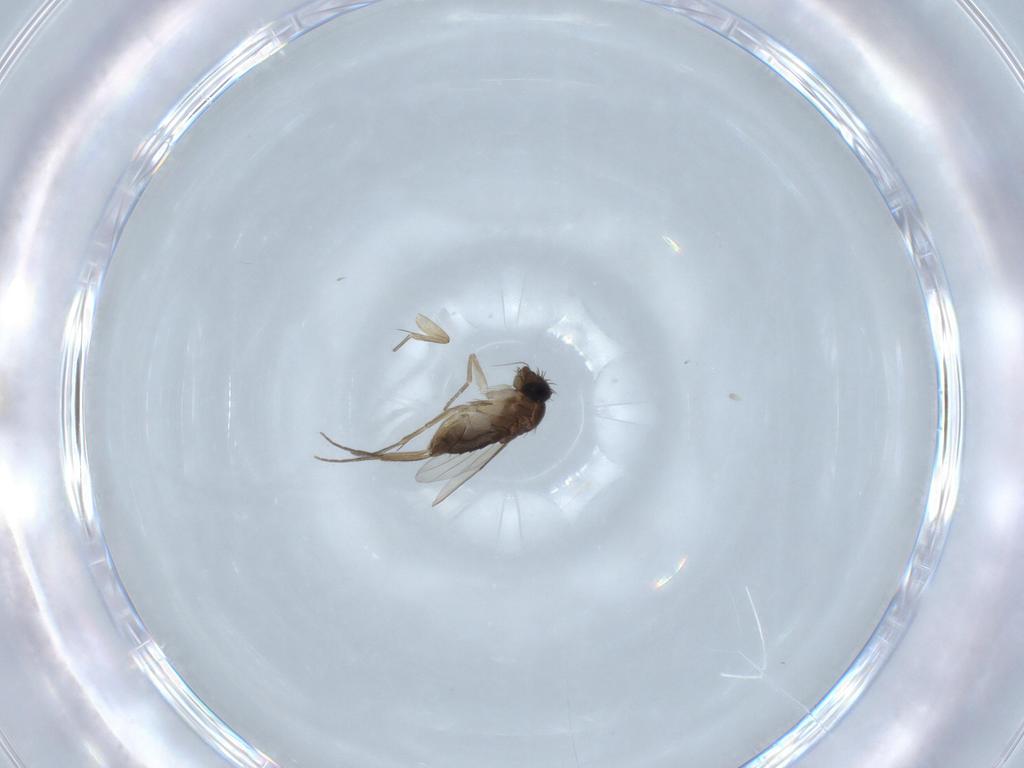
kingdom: Animalia
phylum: Arthropoda
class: Insecta
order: Diptera
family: Phoridae
